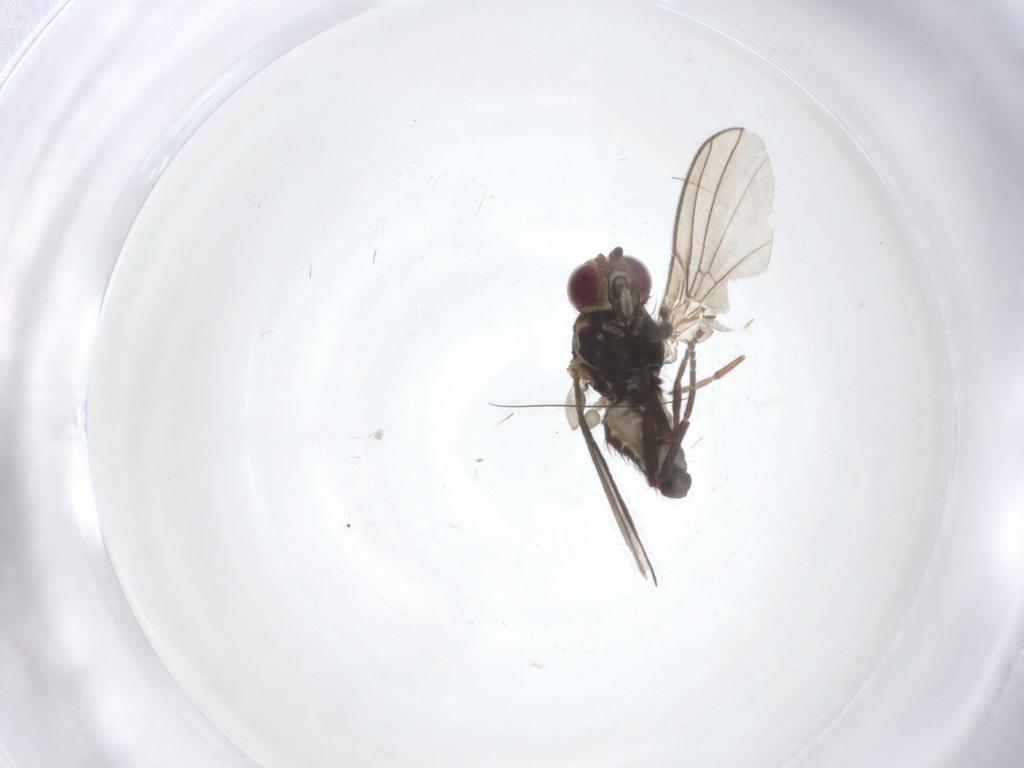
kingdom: Animalia
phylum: Arthropoda
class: Insecta
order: Diptera
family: Agromyzidae
